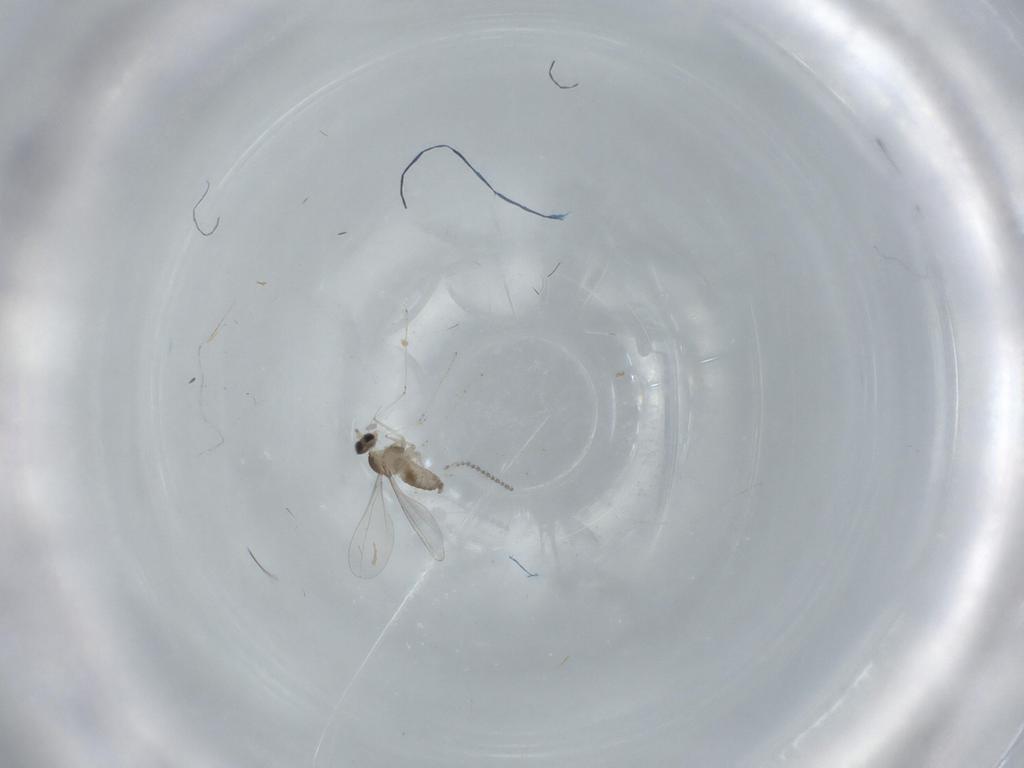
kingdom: Animalia
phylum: Arthropoda
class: Insecta
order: Diptera
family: Cecidomyiidae
